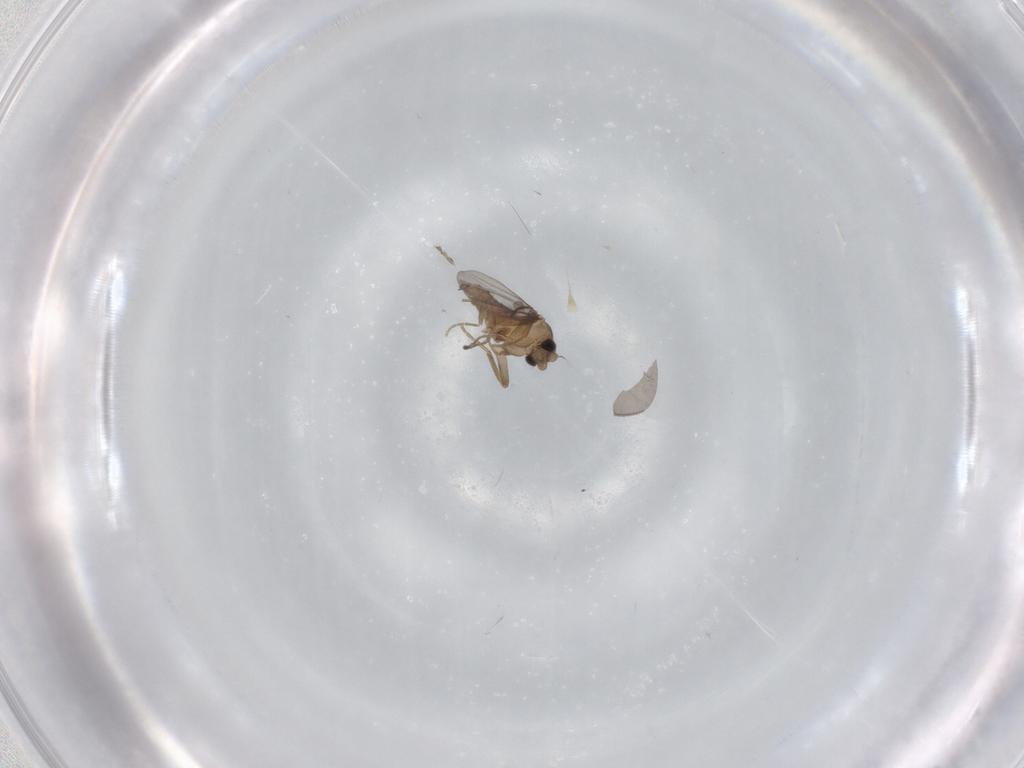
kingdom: Animalia
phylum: Arthropoda
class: Insecta
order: Diptera
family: Ceratopogonidae
